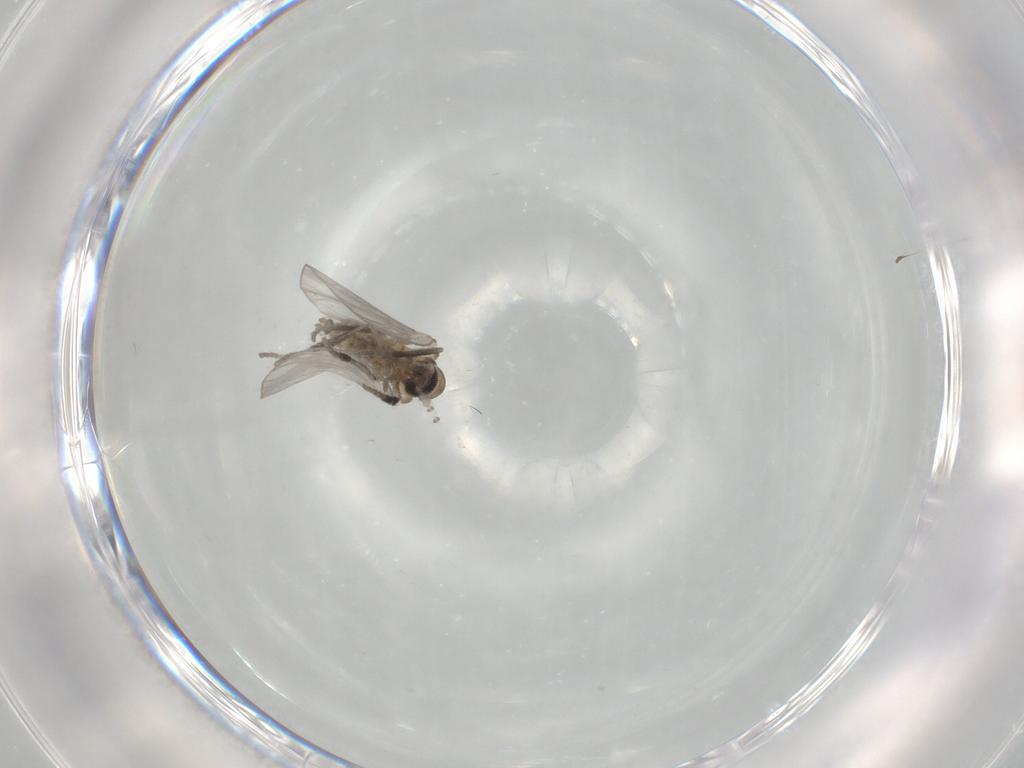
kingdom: Animalia
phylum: Arthropoda
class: Insecta
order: Diptera
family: Psychodidae
